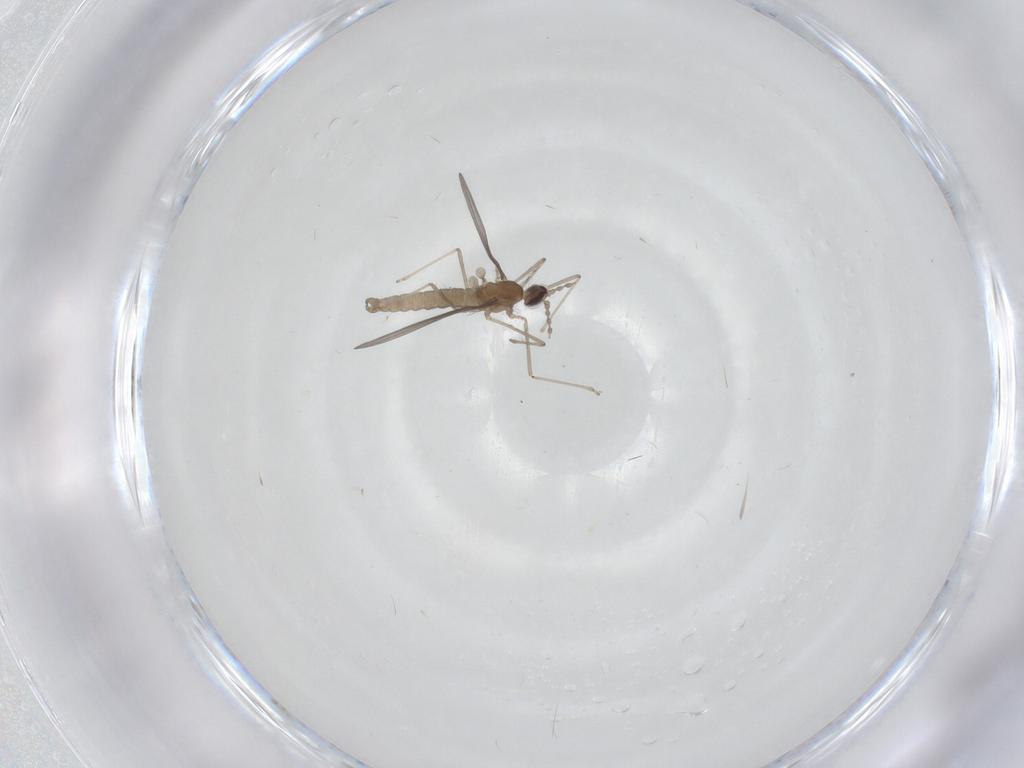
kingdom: Animalia
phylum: Arthropoda
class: Insecta
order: Diptera
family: Cecidomyiidae
